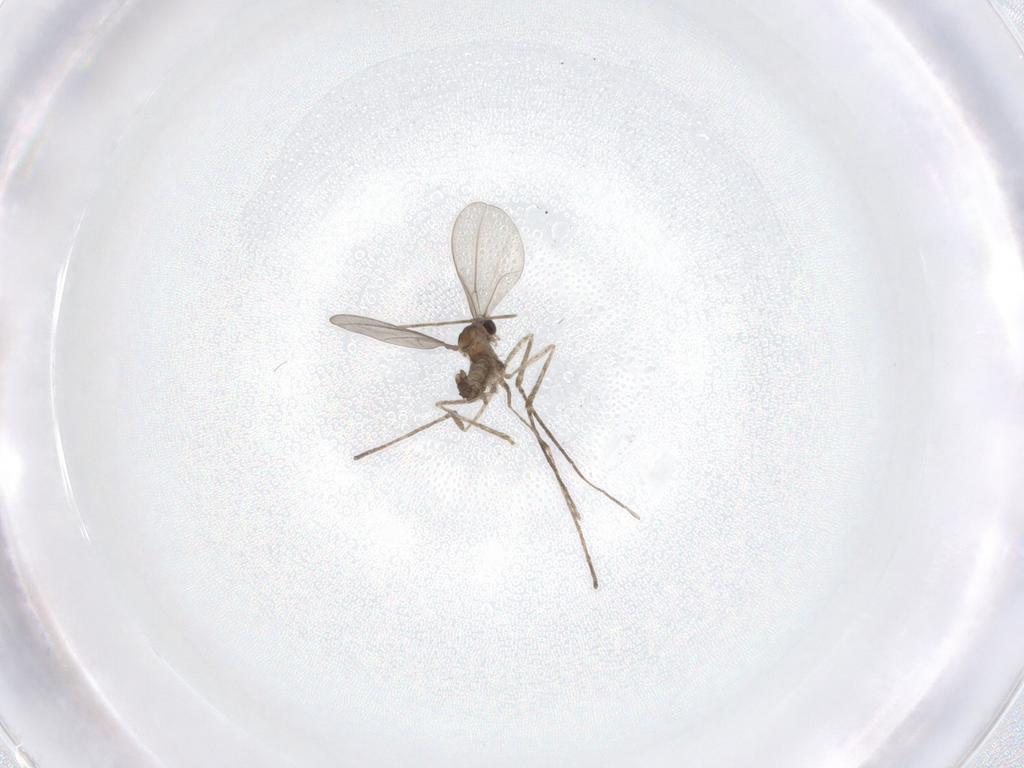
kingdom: Animalia
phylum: Arthropoda
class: Insecta
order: Diptera
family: Cecidomyiidae
